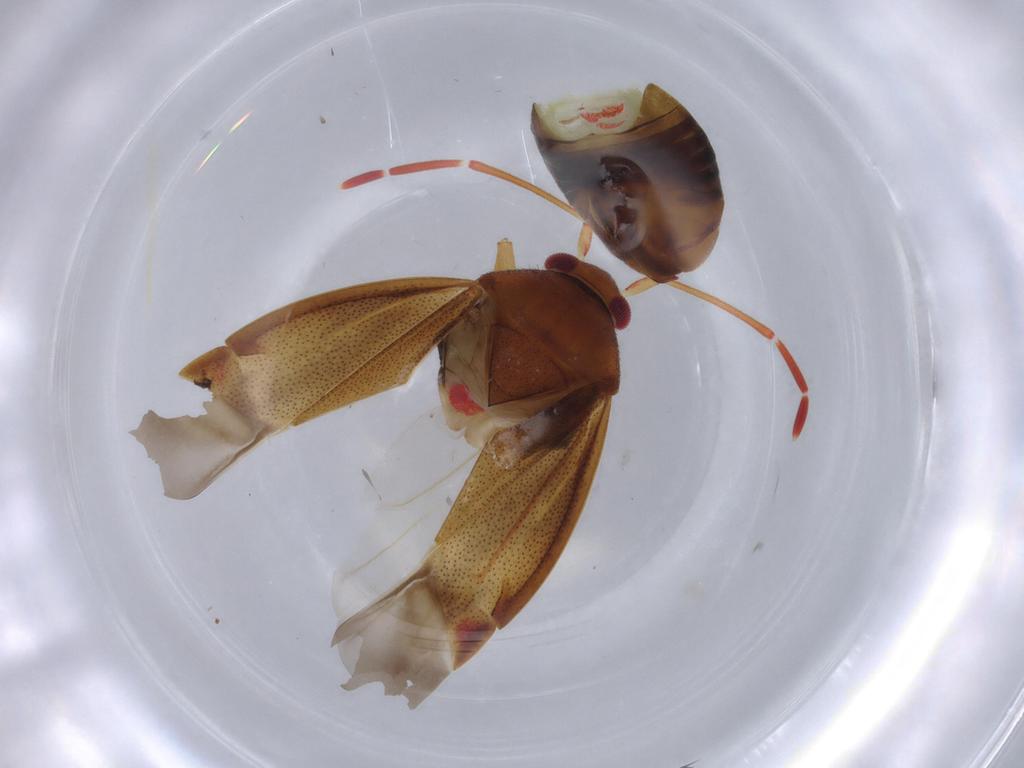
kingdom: Animalia
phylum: Arthropoda
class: Insecta
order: Hemiptera
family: Miridae
